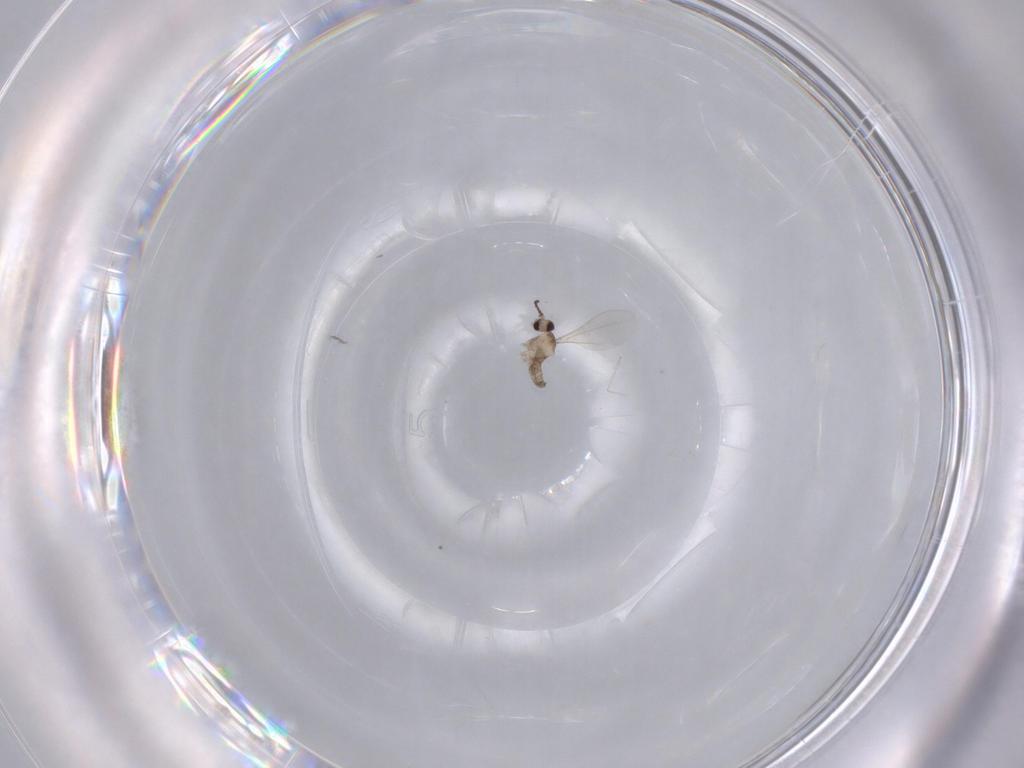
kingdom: Animalia
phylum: Arthropoda
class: Insecta
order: Diptera
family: Cecidomyiidae
